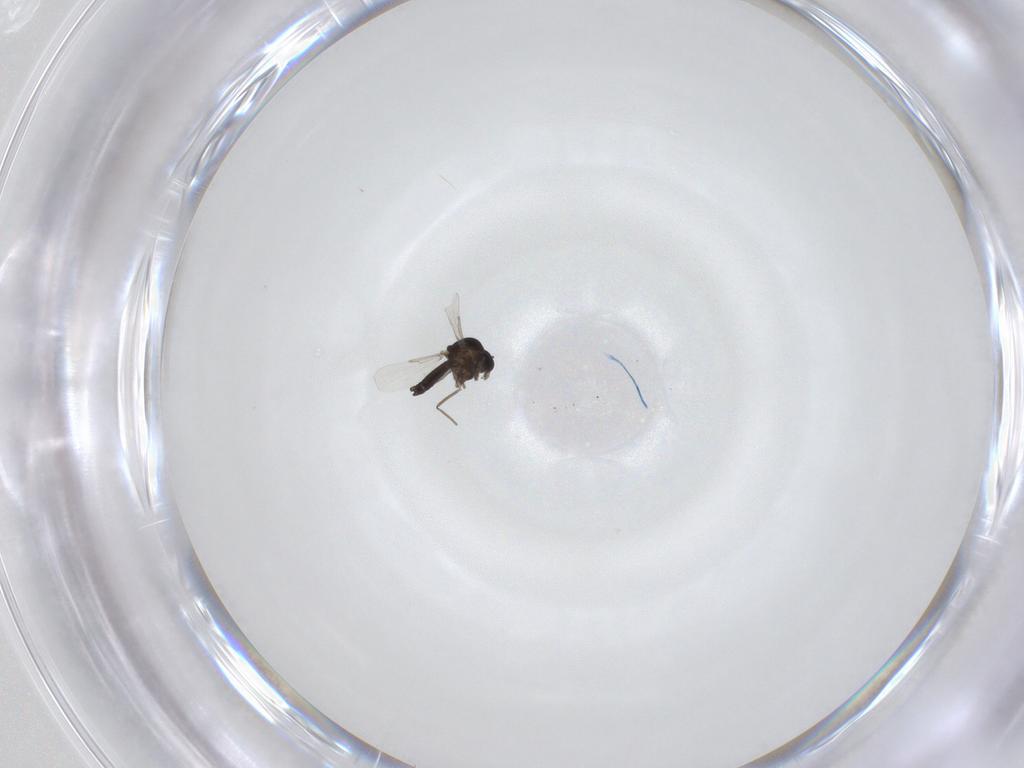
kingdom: Animalia
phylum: Arthropoda
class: Insecta
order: Diptera
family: Ceratopogonidae
